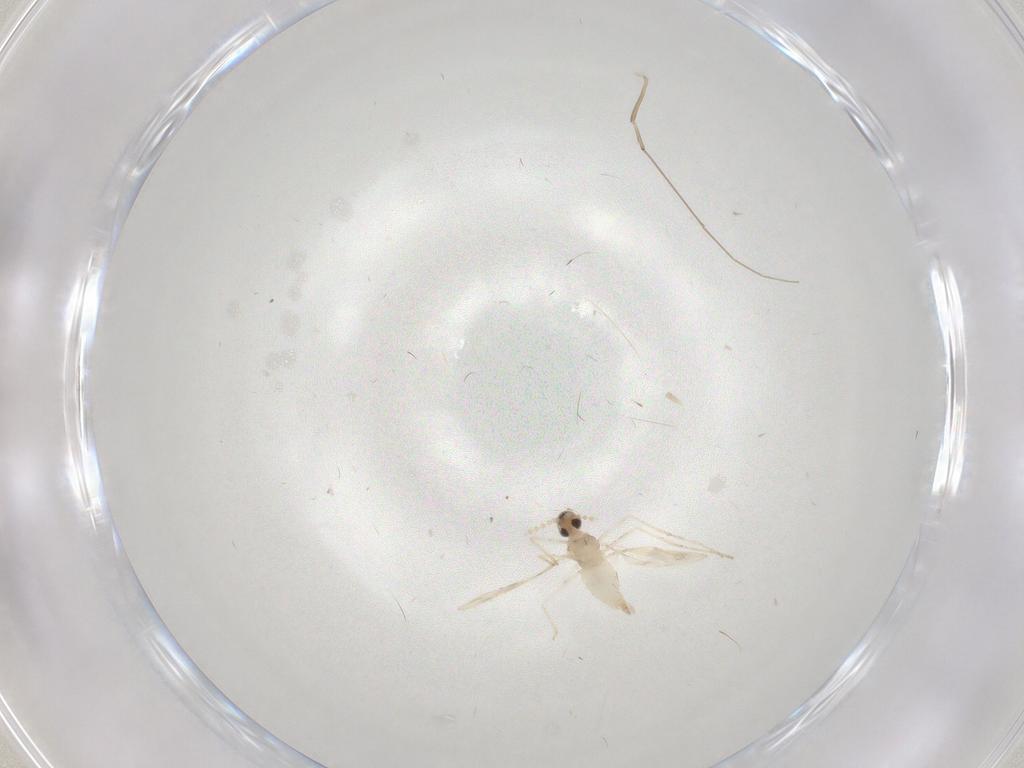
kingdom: Animalia
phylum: Arthropoda
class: Insecta
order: Diptera
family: Cecidomyiidae
